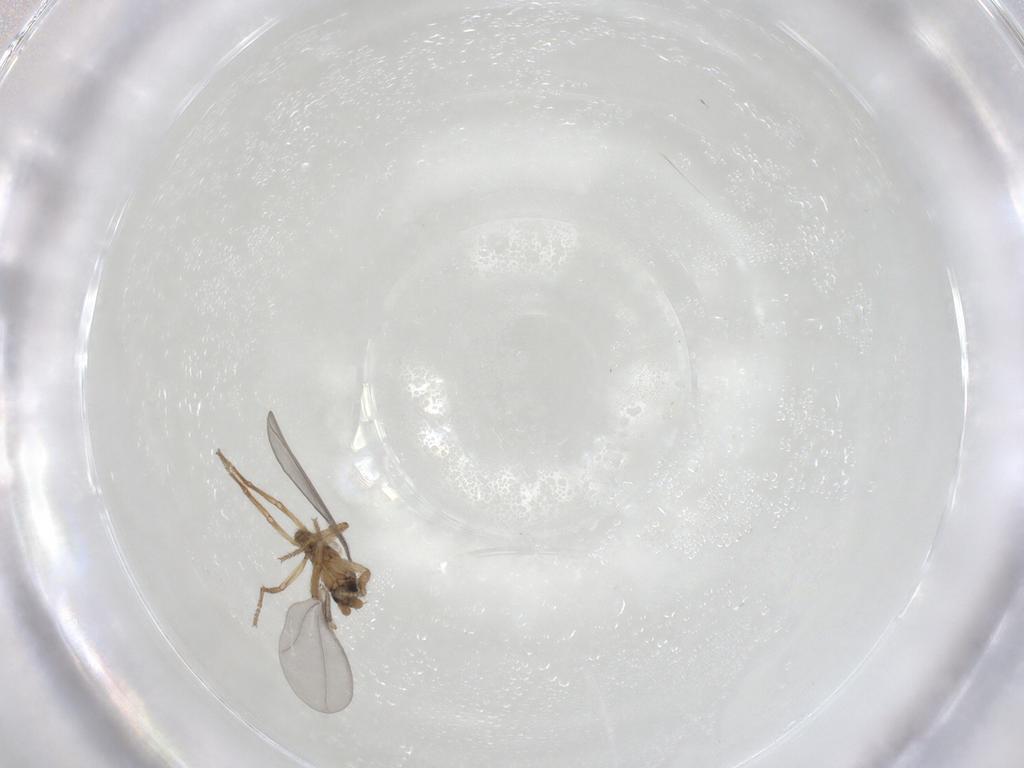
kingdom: Animalia
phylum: Arthropoda
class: Insecta
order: Diptera
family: Phoridae
